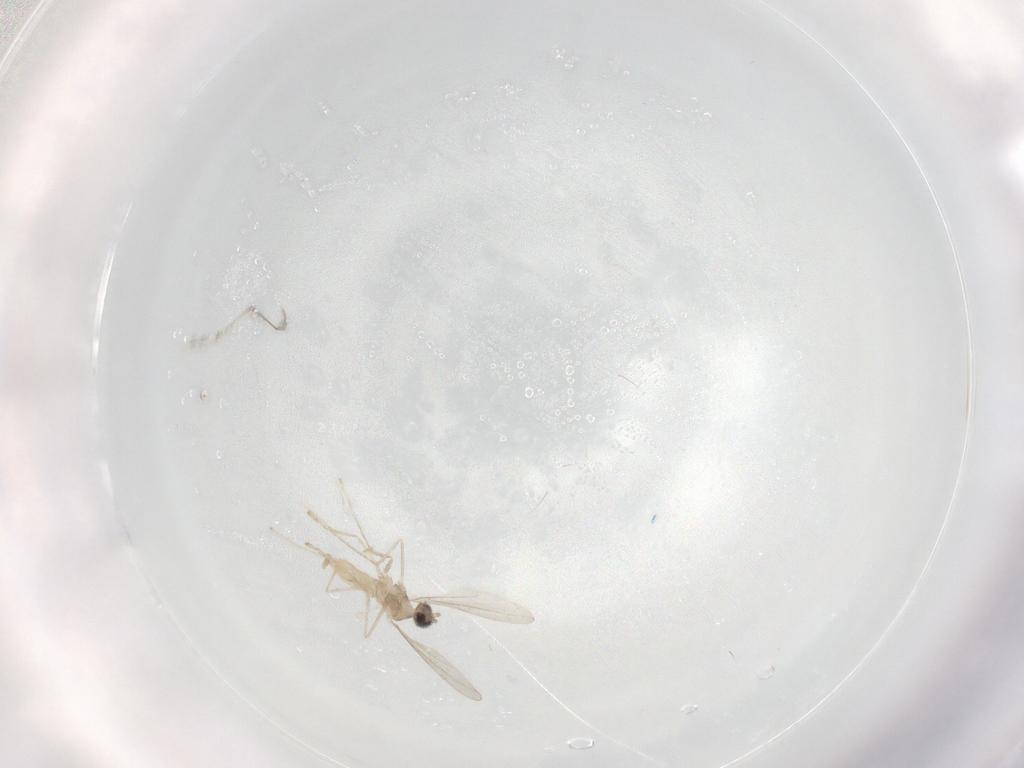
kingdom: Animalia
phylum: Arthropoda
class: Insecta
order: Diptera
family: Cecidomyiidae
